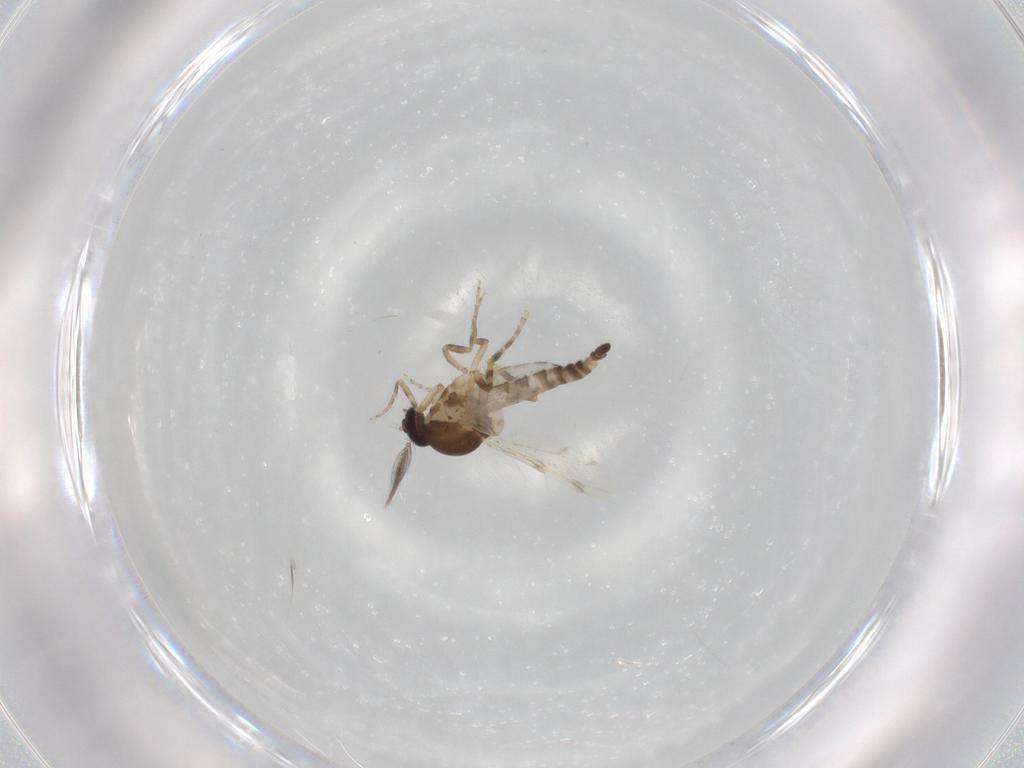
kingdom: Animalia
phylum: Arthropoda
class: Insecta
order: Diptera
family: Ceratopogonidae
